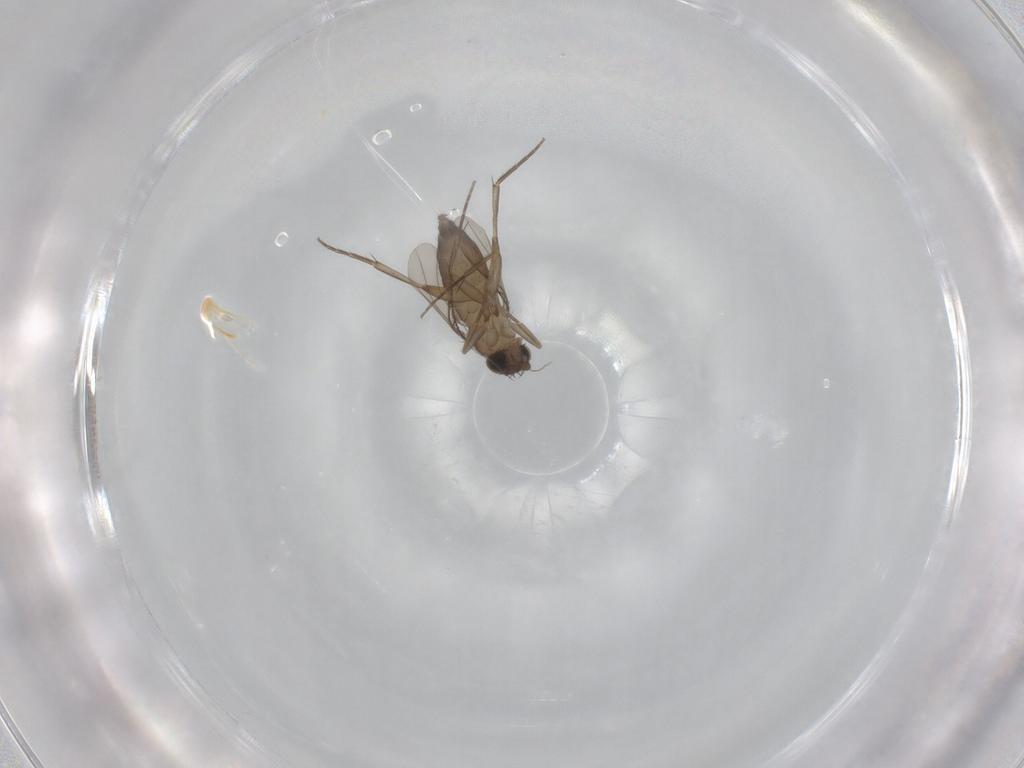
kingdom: Animalia
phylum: Arthropoda
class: Insecta
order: Diptera
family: Phoridae
